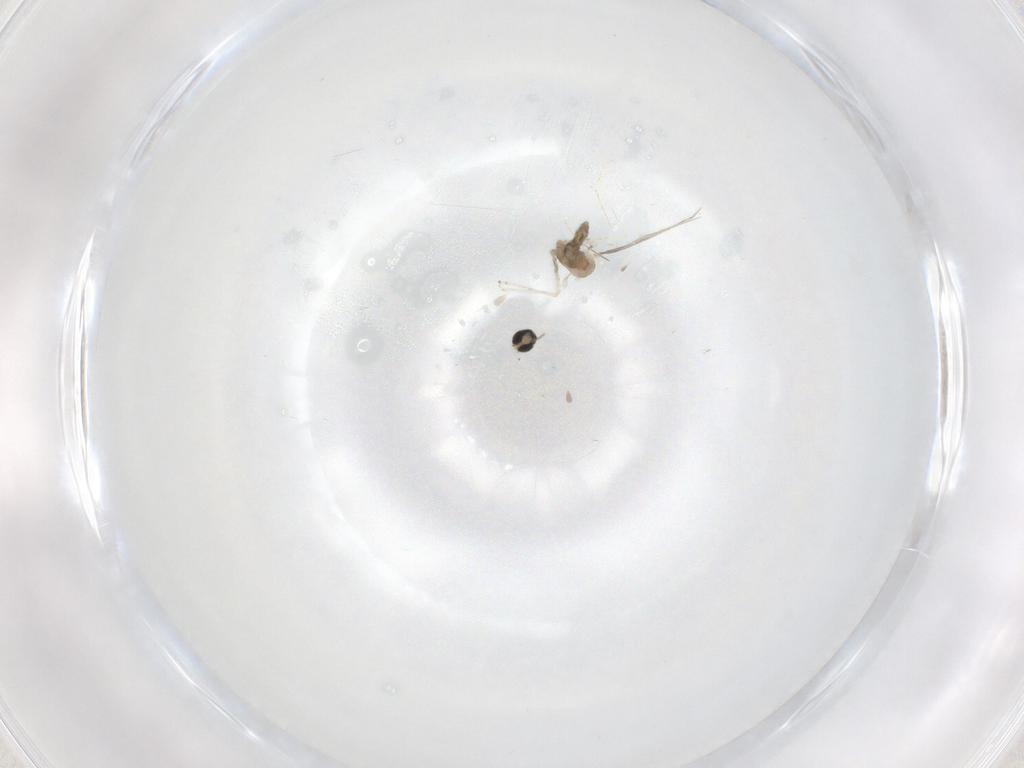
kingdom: Animalia
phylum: Arthropoda
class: Insecta
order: Diptera
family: Cecidomyiidae
